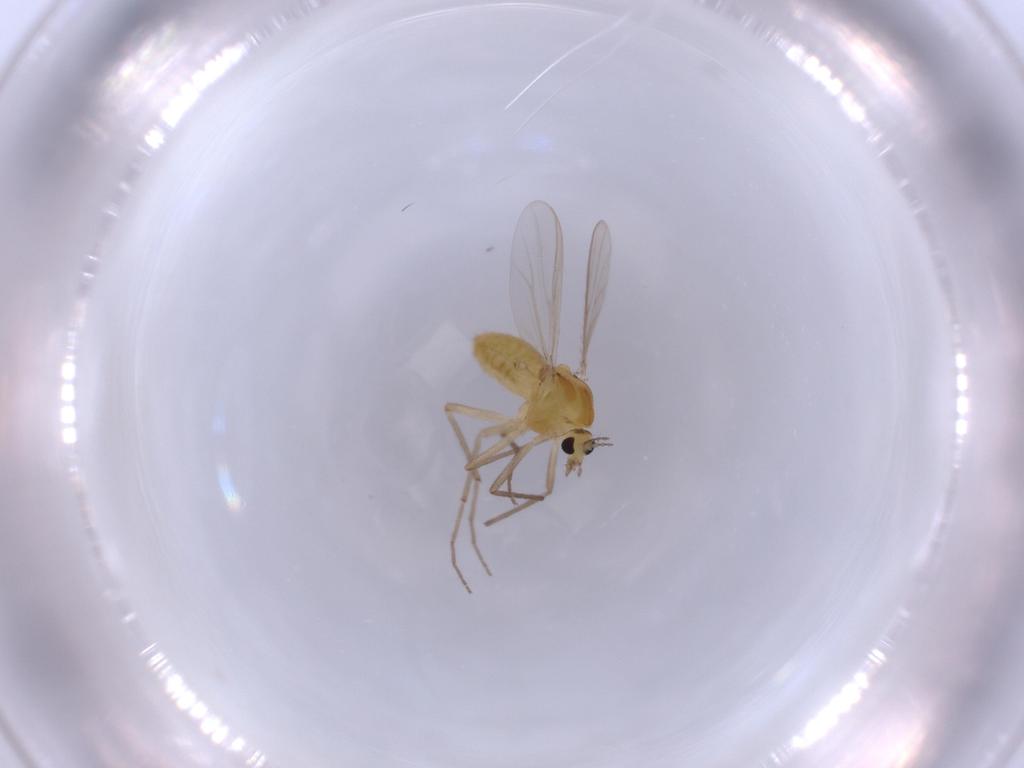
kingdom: Animalia
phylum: Arthropoda
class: Insecta
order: Diptera
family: Chironomidae
